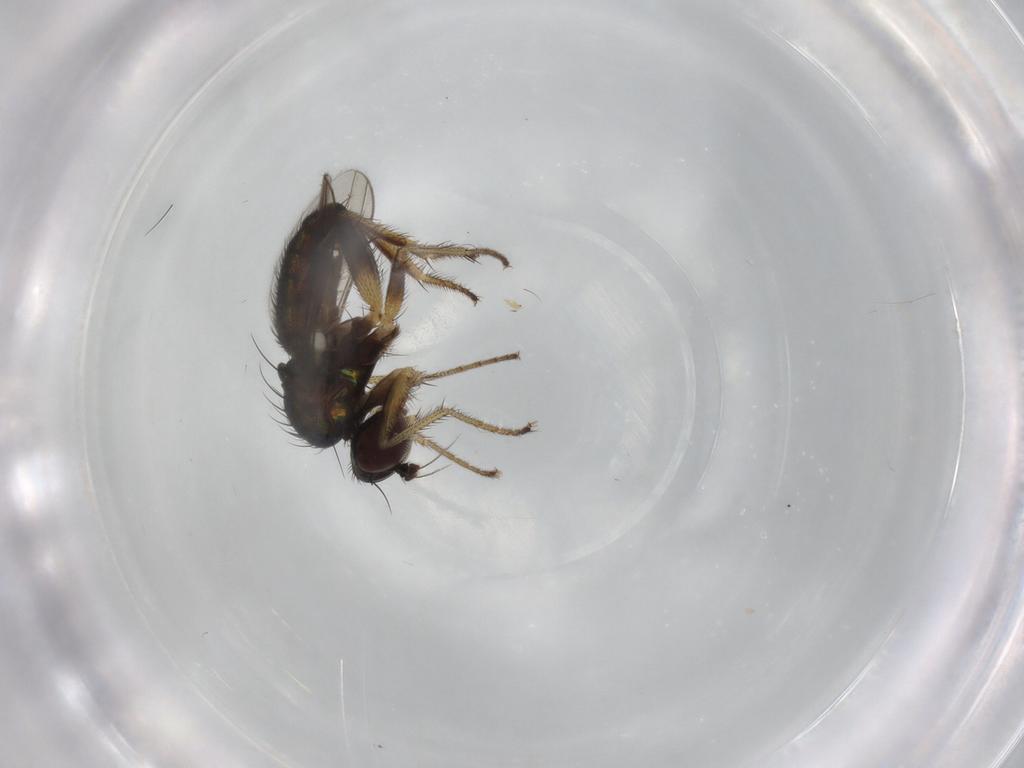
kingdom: Animalia
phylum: Arthropoda
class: Insecta
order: Diptera
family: Dolichopodidae
